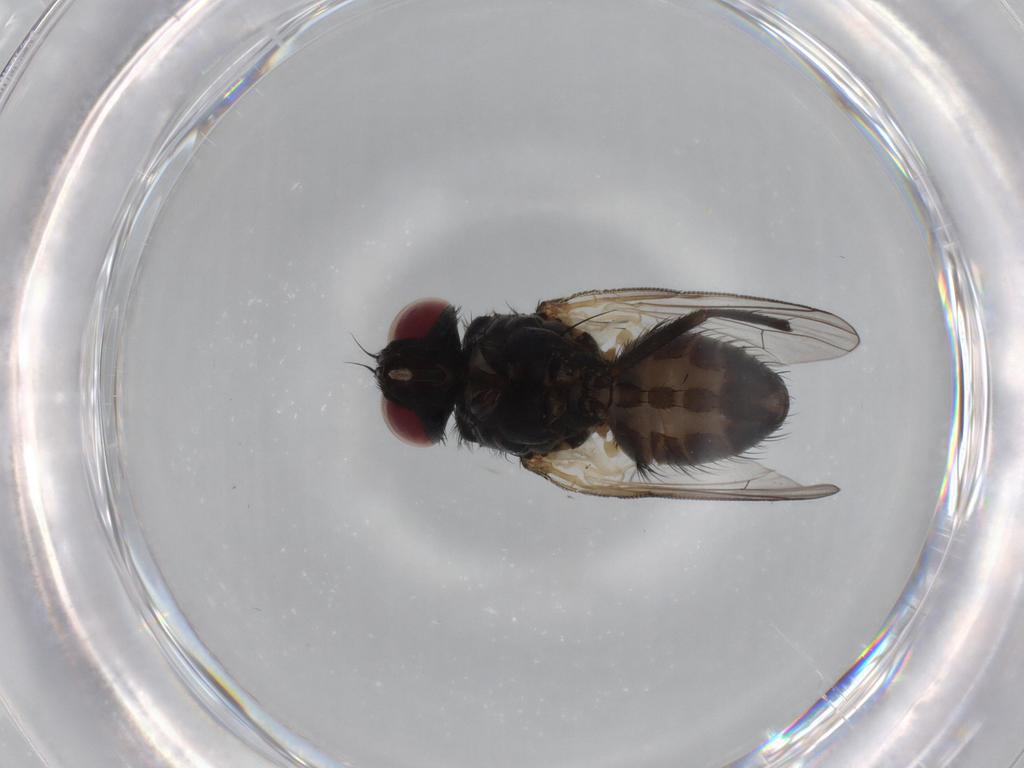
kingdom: Animalia
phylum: Arthropoda
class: Insecta
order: Diptera
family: Muscidae
